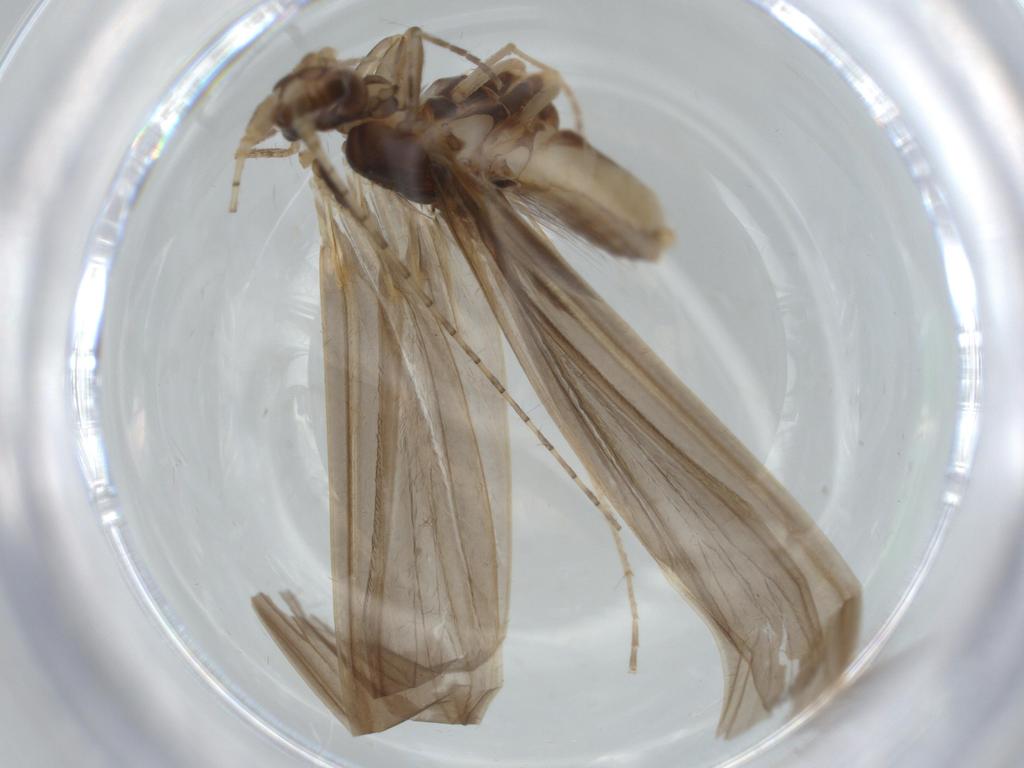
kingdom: Animalia
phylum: Arthropoda
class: Insecta
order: Trichoptera
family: Leptoceridae
